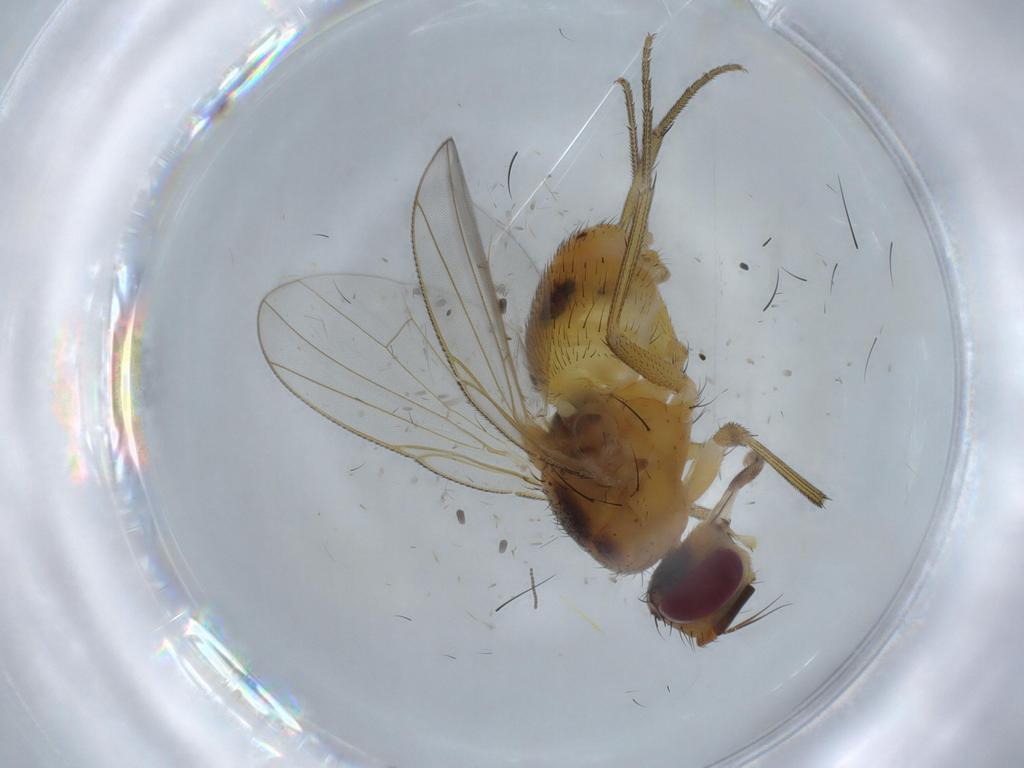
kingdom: Animalia
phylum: Arthropoda
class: Insecta
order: Diptera
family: Muscidae
